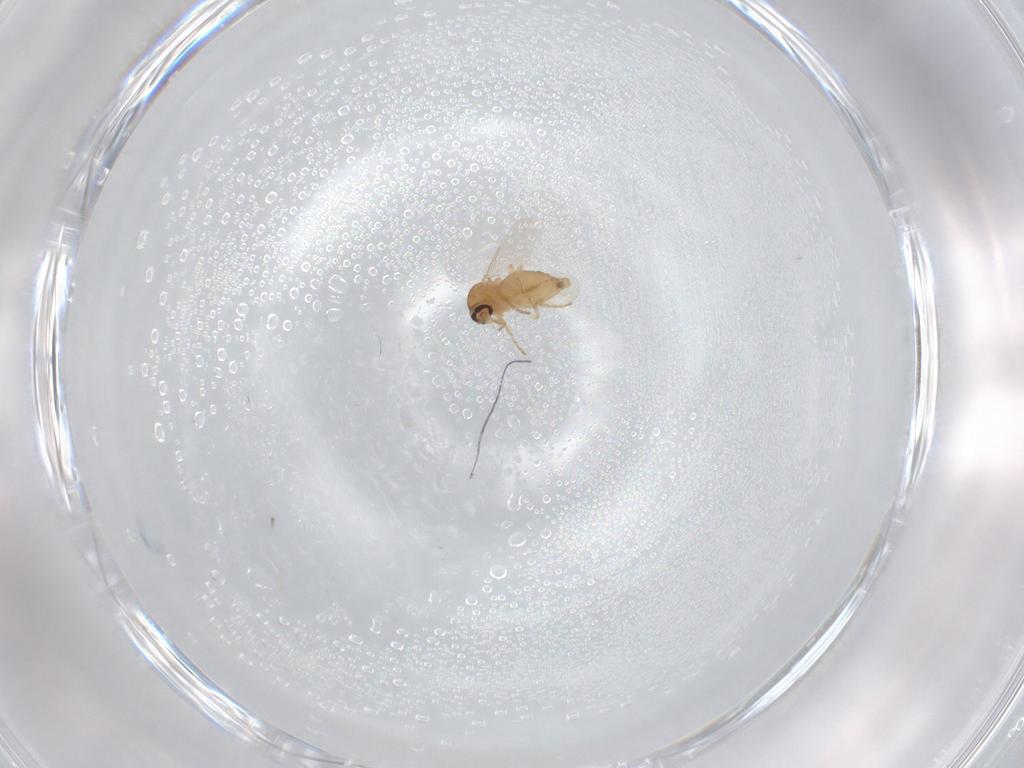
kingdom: Animalia
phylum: Arthropoda
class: Insecta
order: Diptera
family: Ceratopogonidae
